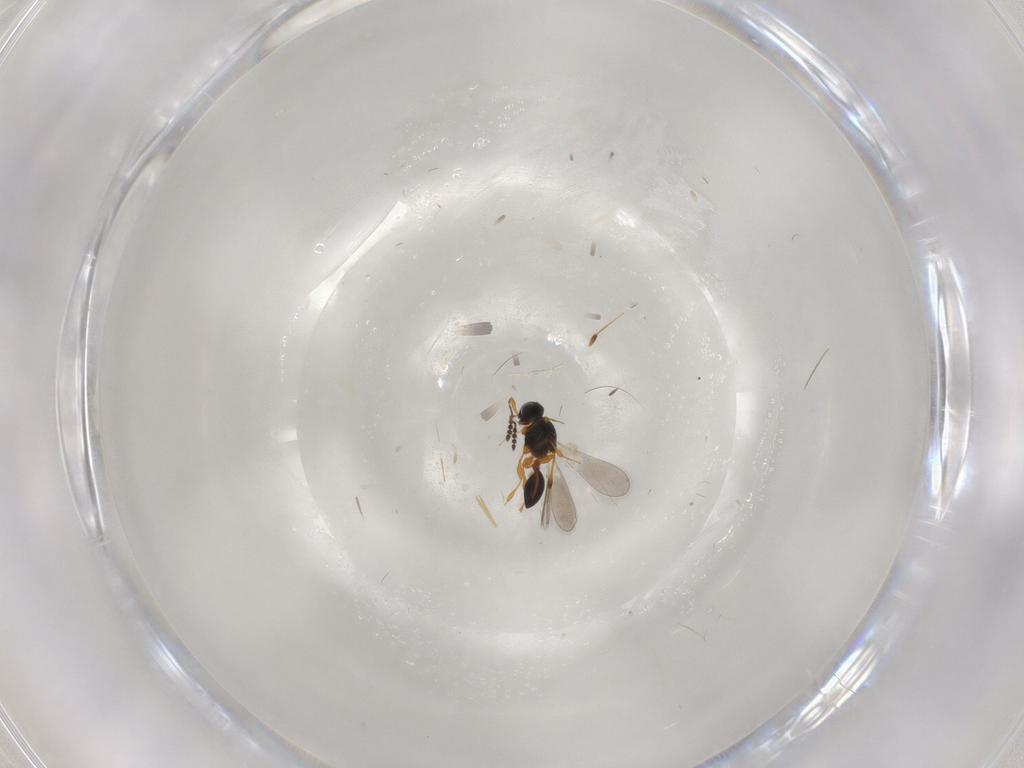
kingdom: Animalia
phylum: Arthropoda
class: Insecta
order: Hymenoptera
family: Platygastridae
